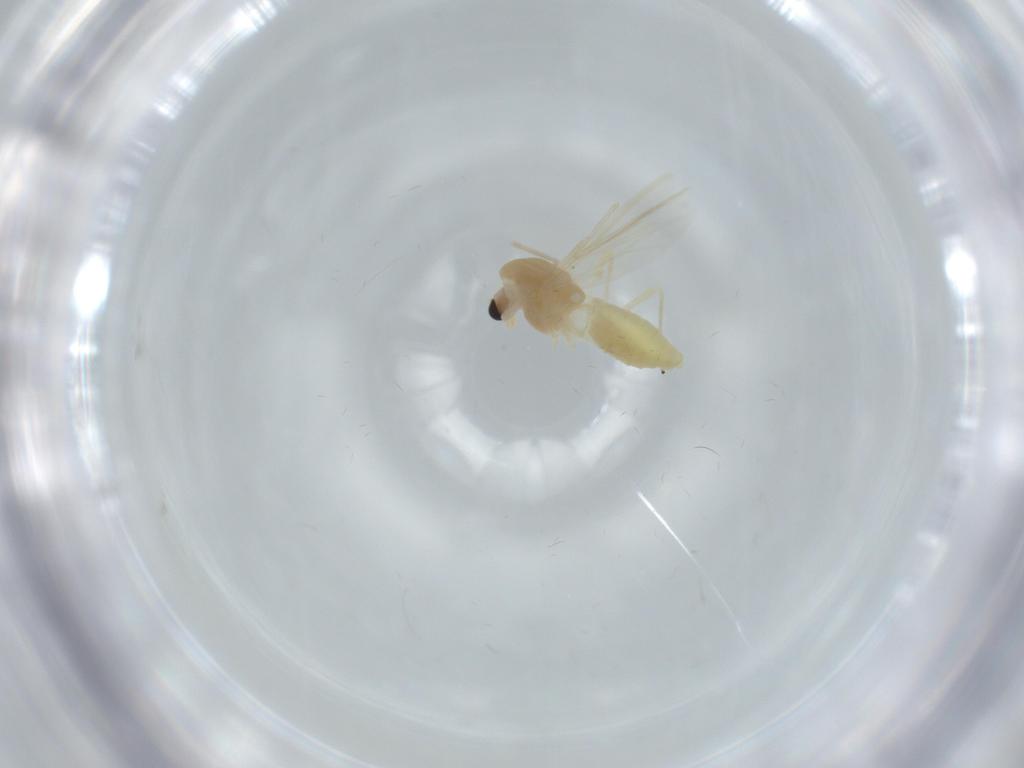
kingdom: Animalia
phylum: Arthropoda
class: Insecta
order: Diptera
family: Chironomidae
